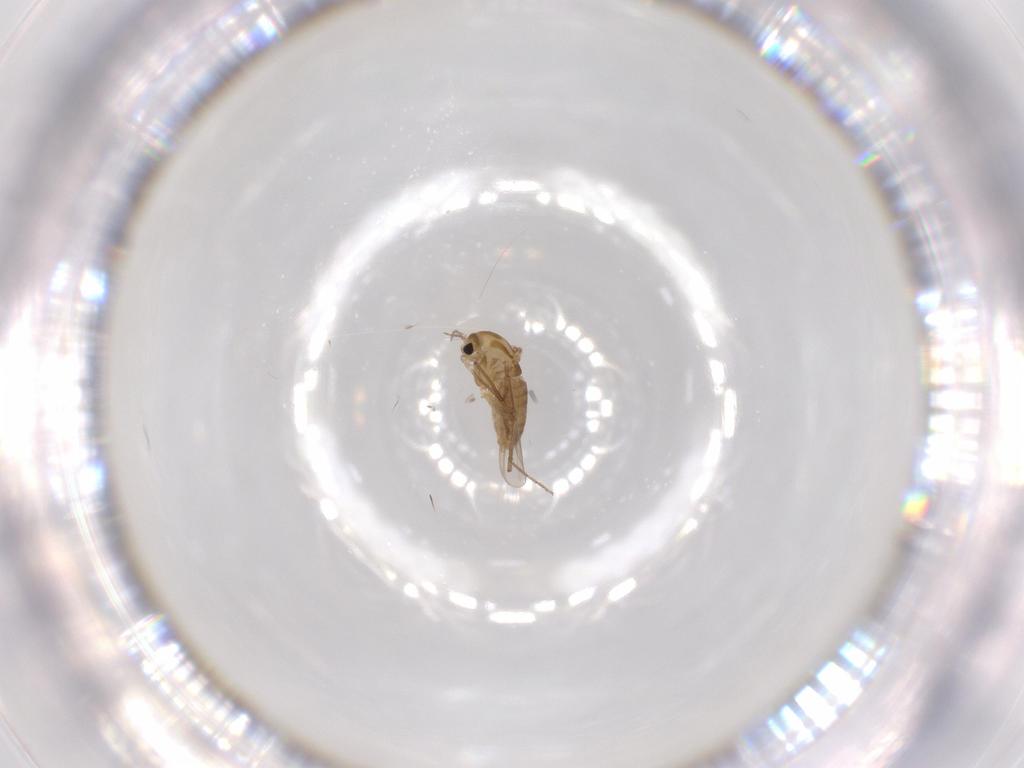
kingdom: Animalia
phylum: Arthropoda
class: Insecta
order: Diptera
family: Chironomidae
